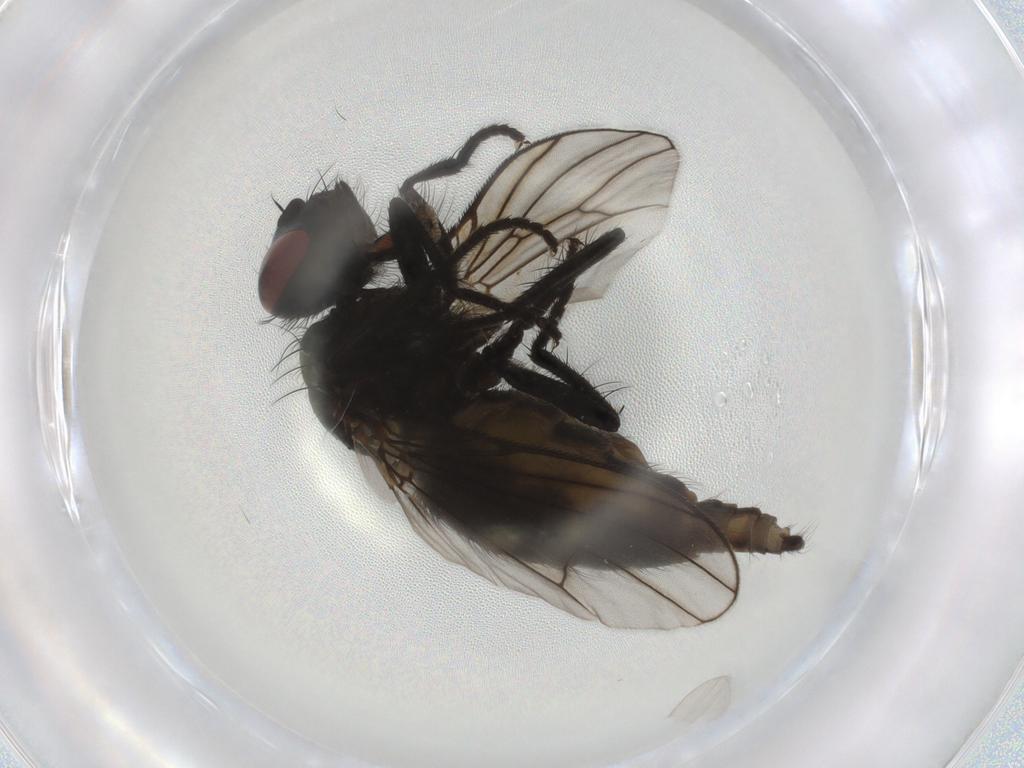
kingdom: Animalia
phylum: Arthropoda
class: Insecta
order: Diptera
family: Chironomidae
